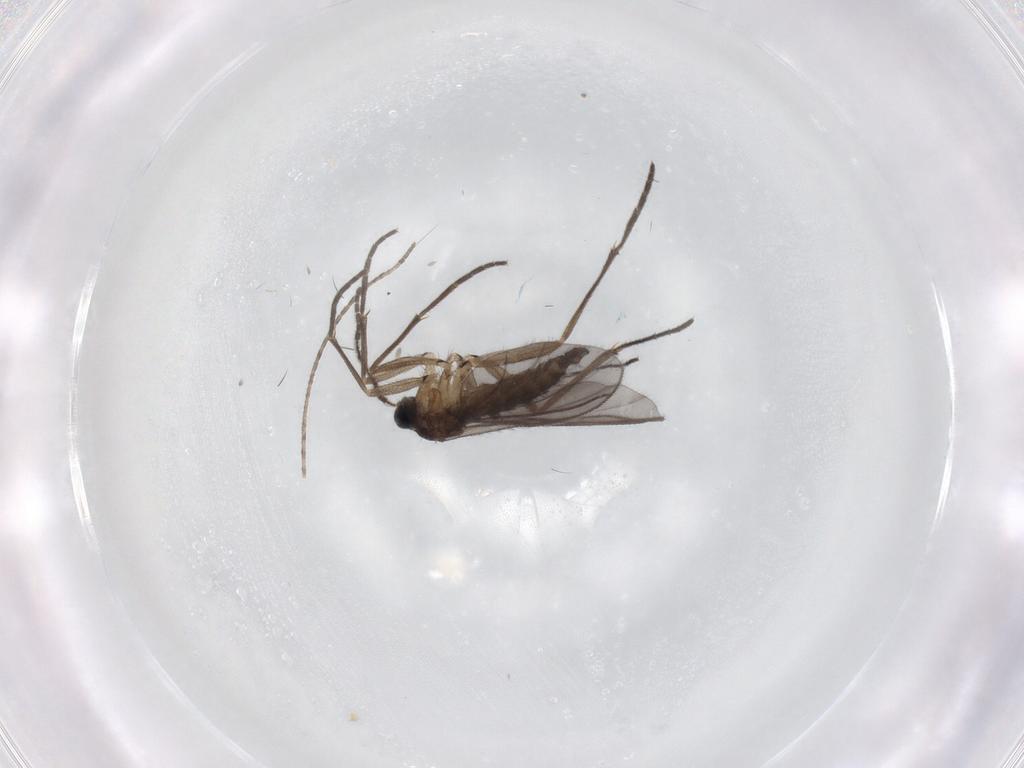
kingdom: Animalia
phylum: Arthropoda
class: Insecta
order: Diptera
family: Sciaridae
